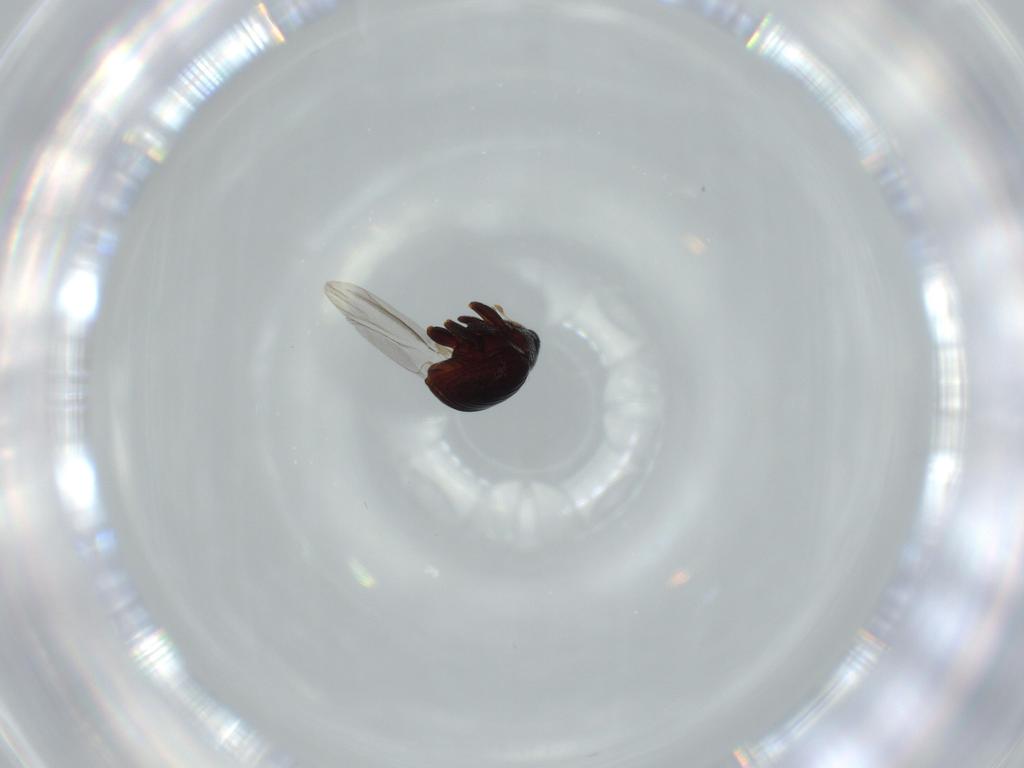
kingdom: Animalia
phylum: Arthropoda
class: Insecta
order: Coleoptera
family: Curculionidae
